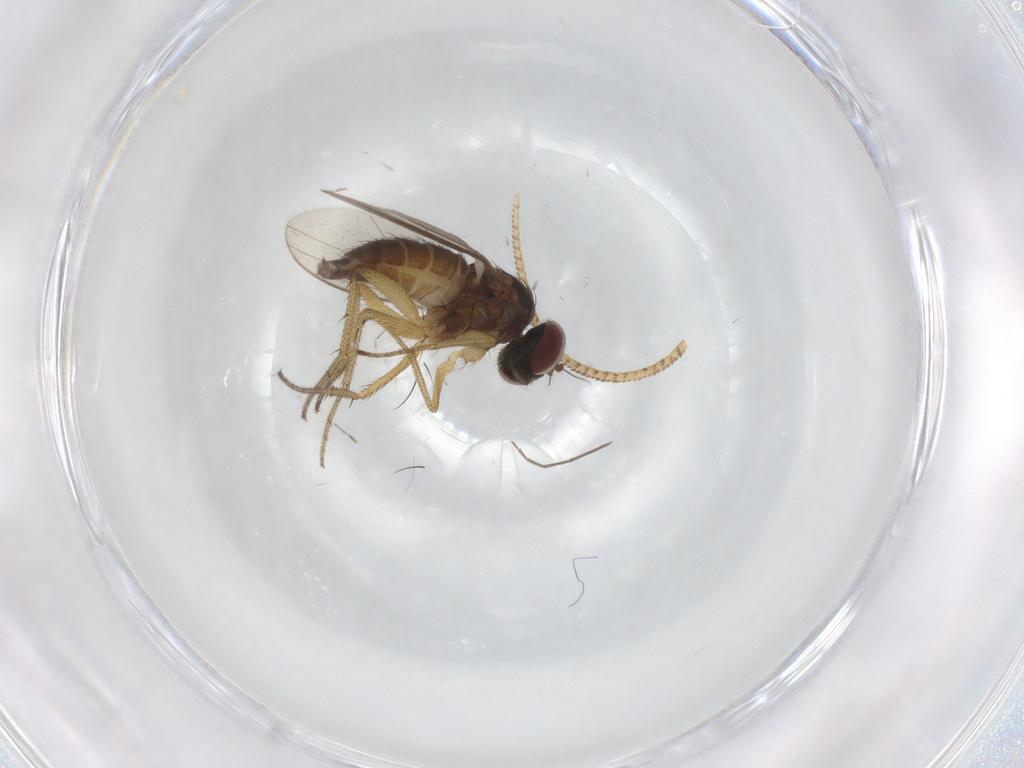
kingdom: Animalia
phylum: Arthropoda
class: Insecta
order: Diptera
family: Chironomidae
